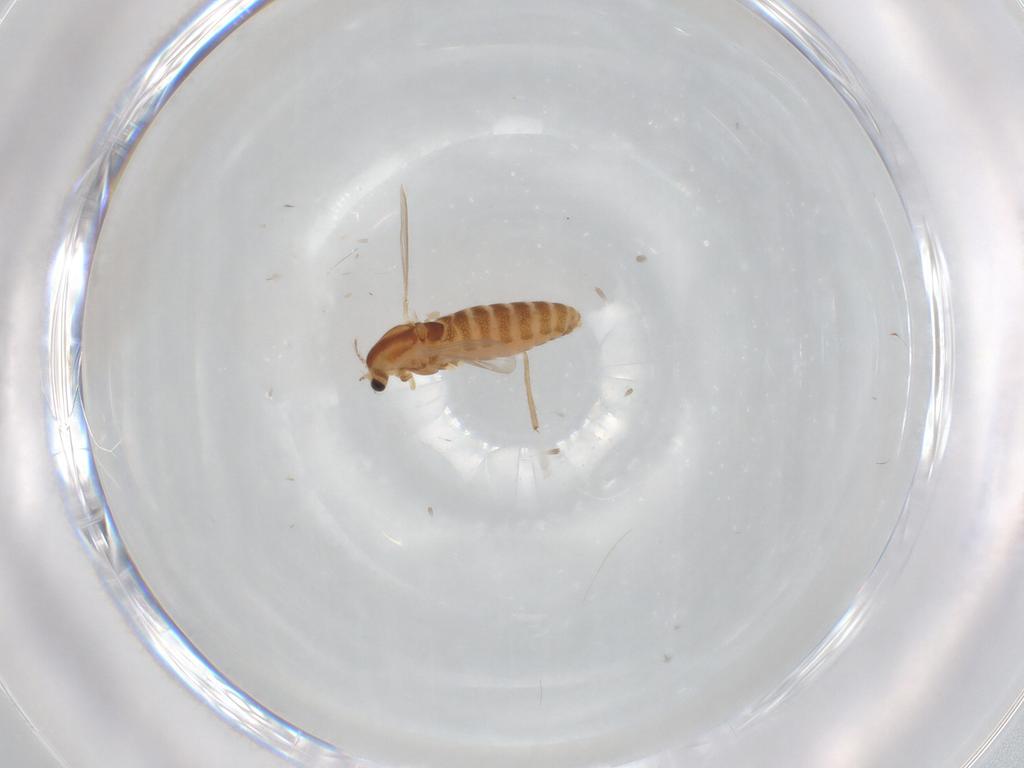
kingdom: Animalia
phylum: Arthropoda
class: Insecta
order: Diptera
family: Chironomidae
